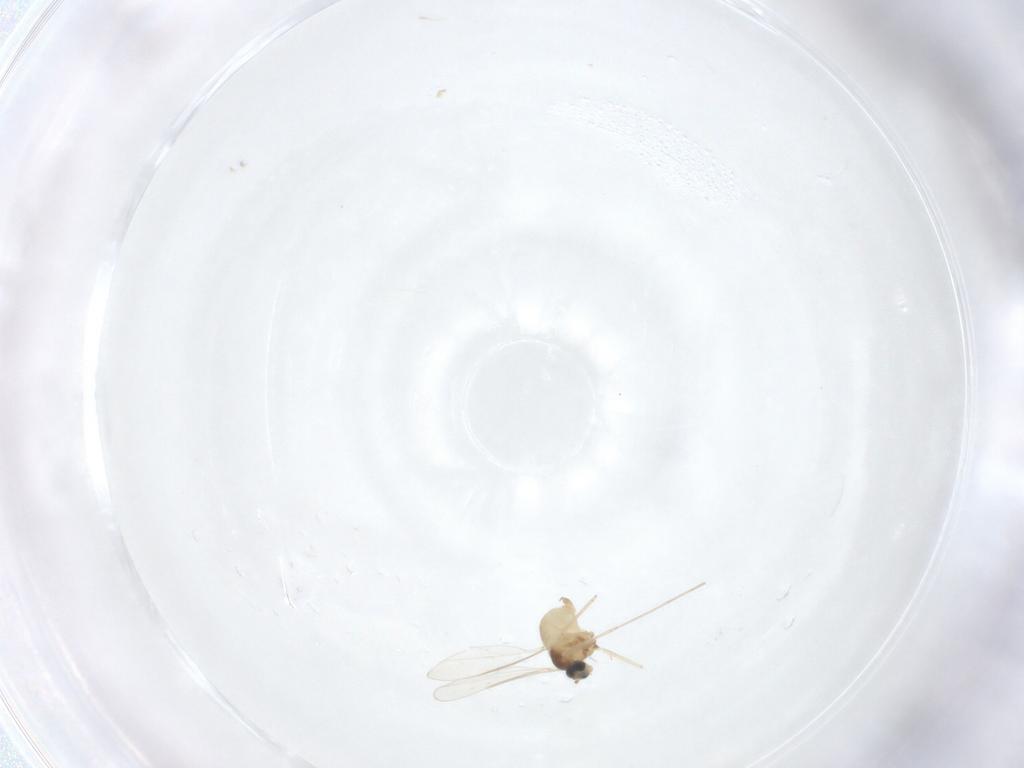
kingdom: Animalia
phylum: Arthropoda
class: Insecta
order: Diptera
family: Cecidomyiidae
